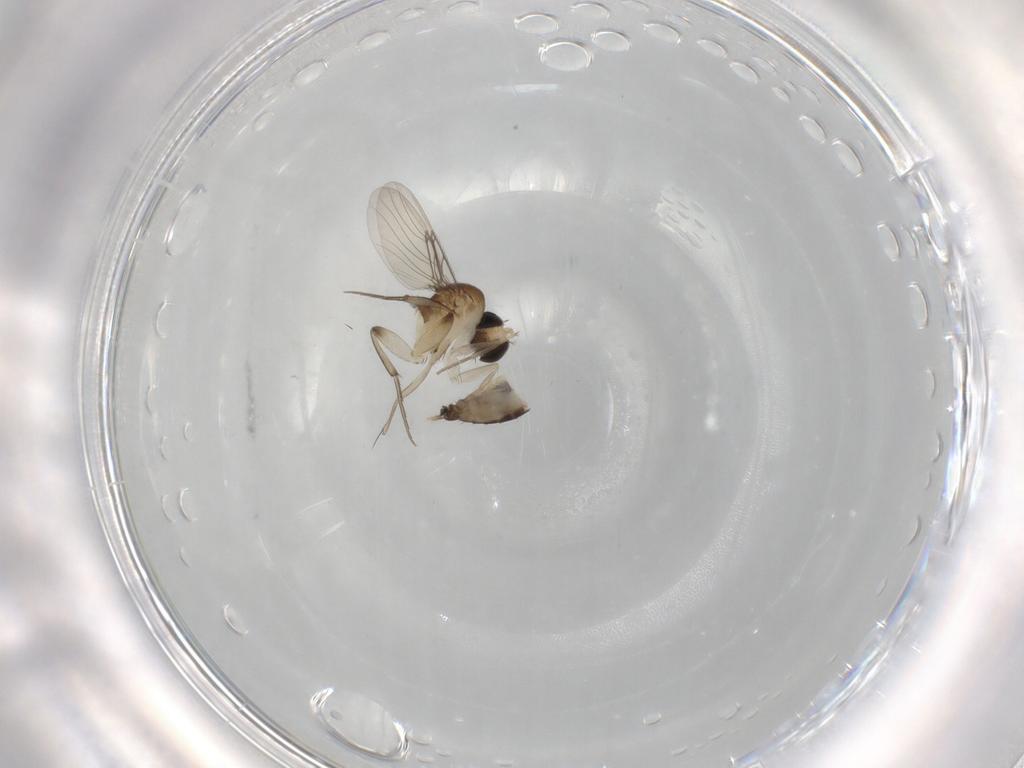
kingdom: Animalia
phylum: Arthropoda
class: Insecta
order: Diptera
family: Phoridae
